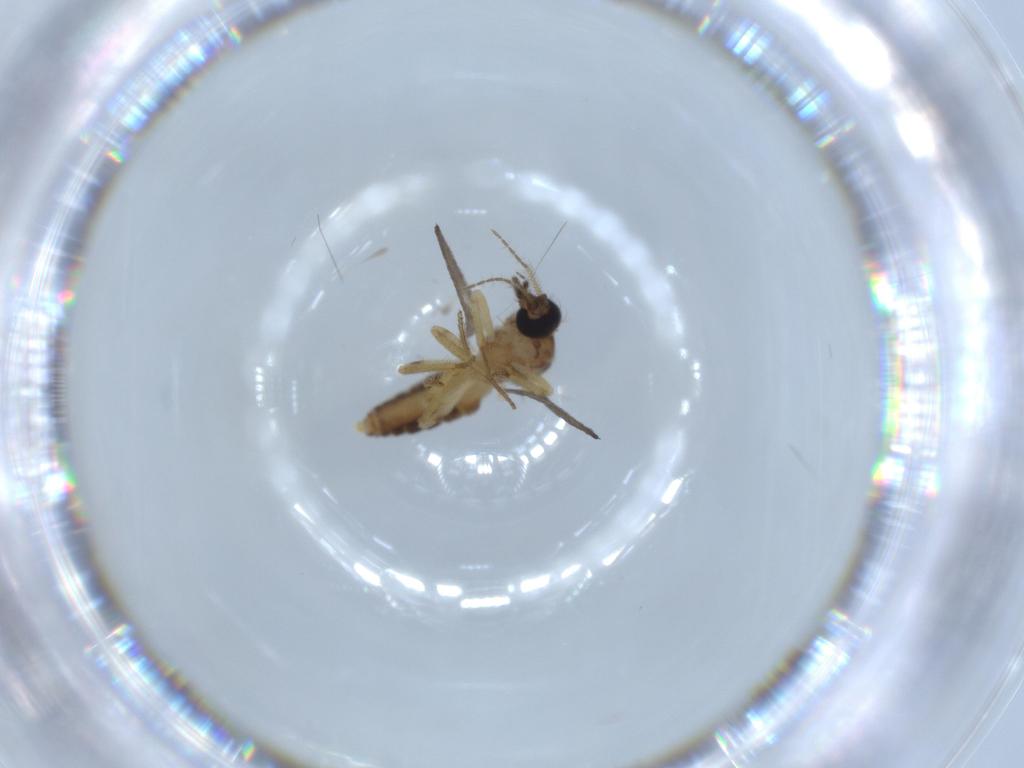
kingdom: Animalia
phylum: Arthropoda
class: Insecta
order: Diptera
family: Ceratopogonidae
